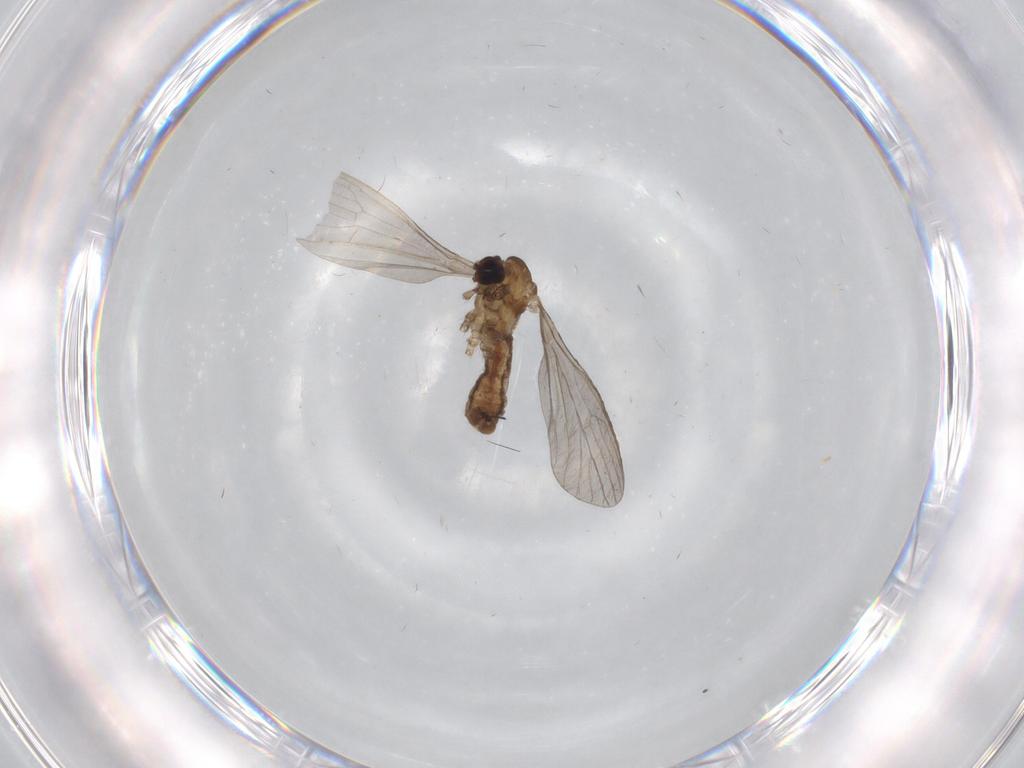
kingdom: Animalia
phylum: Arthropoda
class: Insecta
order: Diptera
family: Limoniidae
